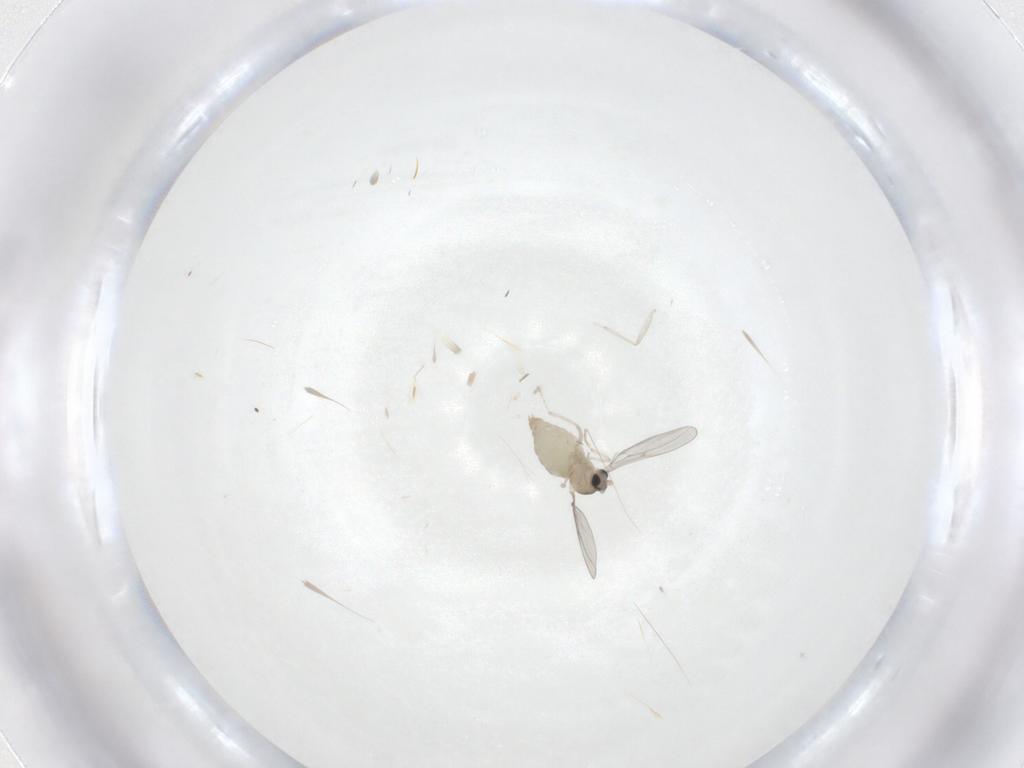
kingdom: Animalia
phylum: Arthropoda
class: Insecta
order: Diptera
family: Cecidomyiidae
